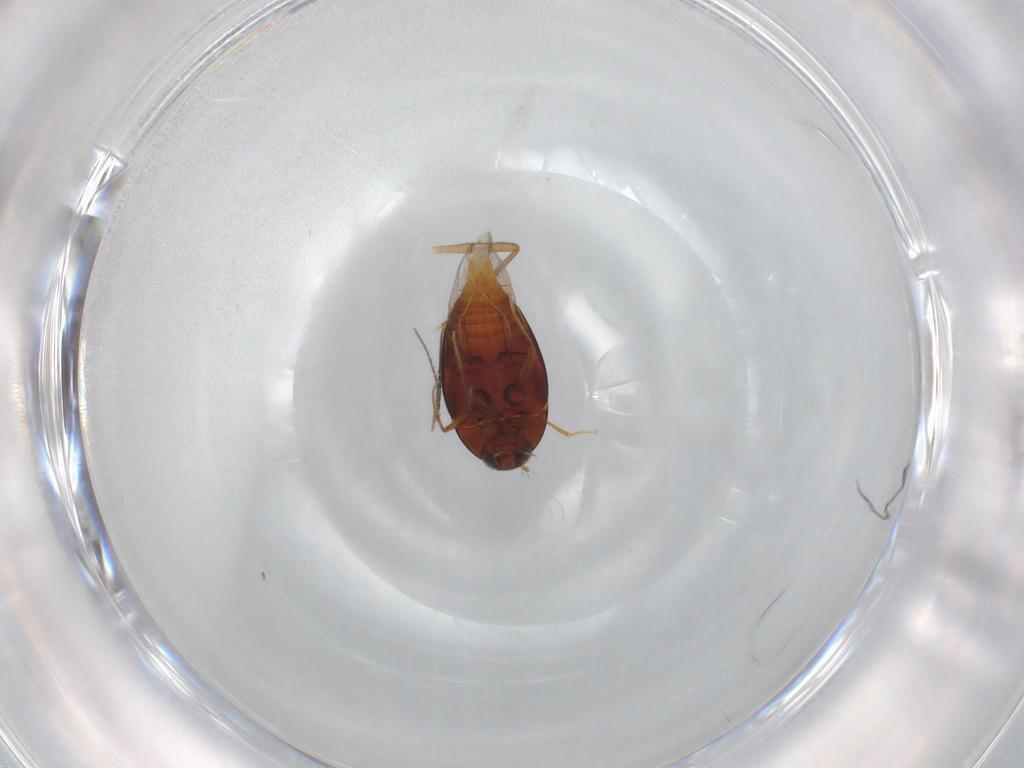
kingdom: Animalia
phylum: Arthropoda
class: Insecta
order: Coleoptera
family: Staphylinidae
